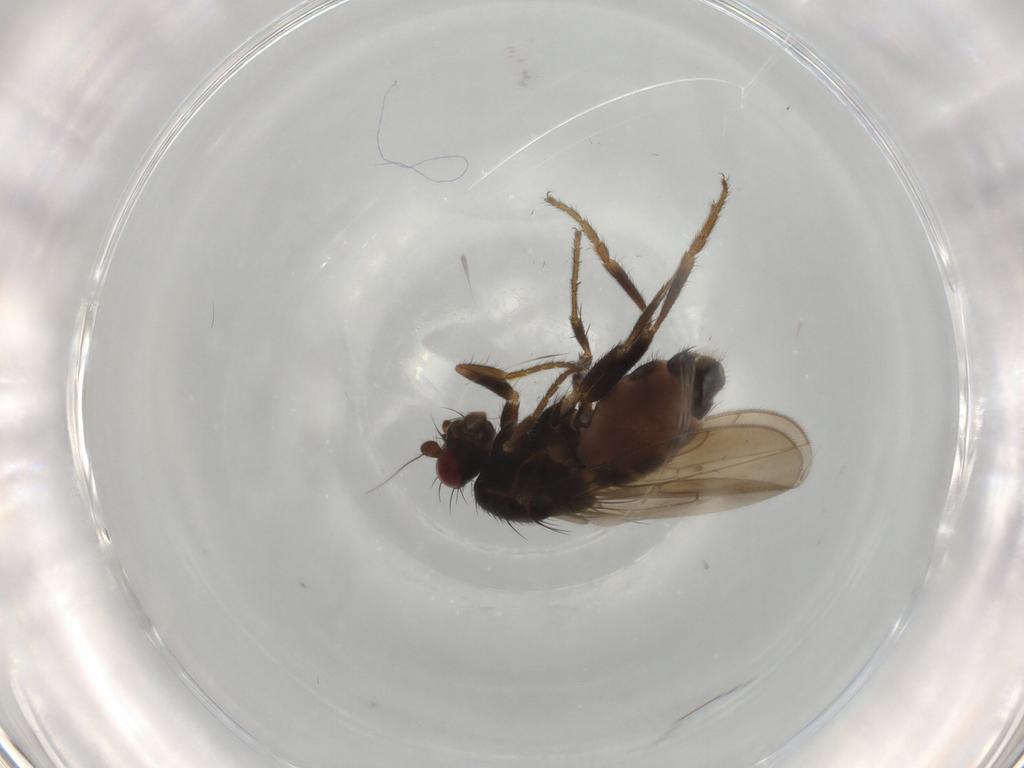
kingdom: Animalia
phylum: Arthropoda
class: Insecta
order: Diptera
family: Sphaeroceridae
